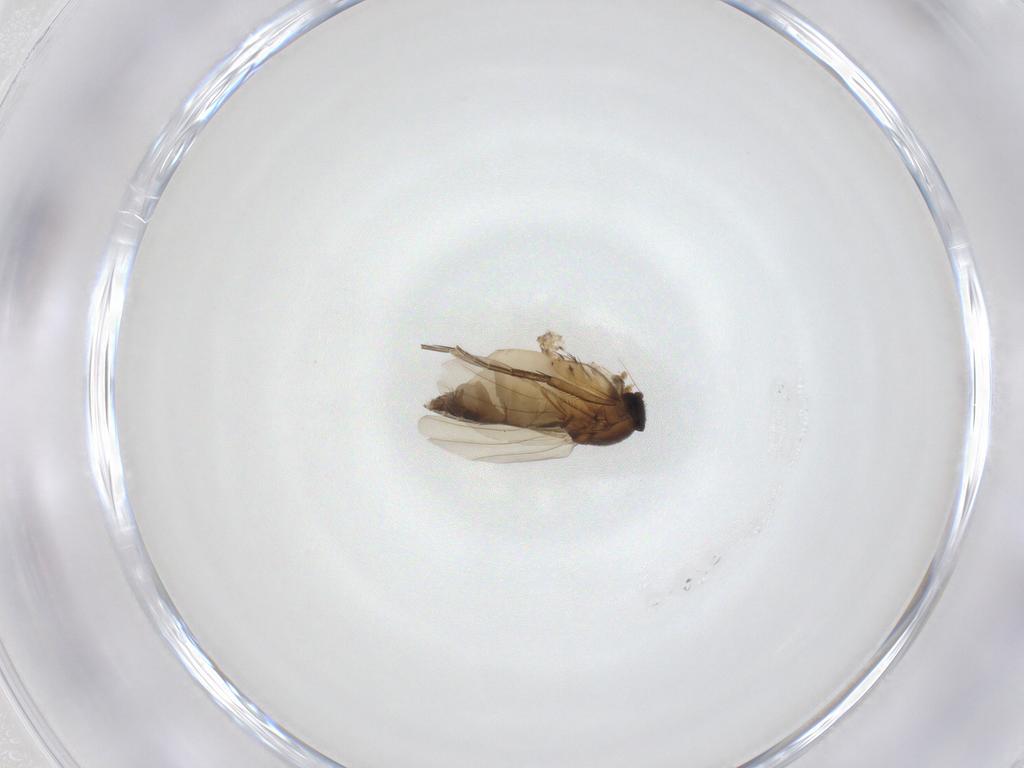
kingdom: Animalia
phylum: Arthropoda
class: Insecta
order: Diptera
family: Phoridae
